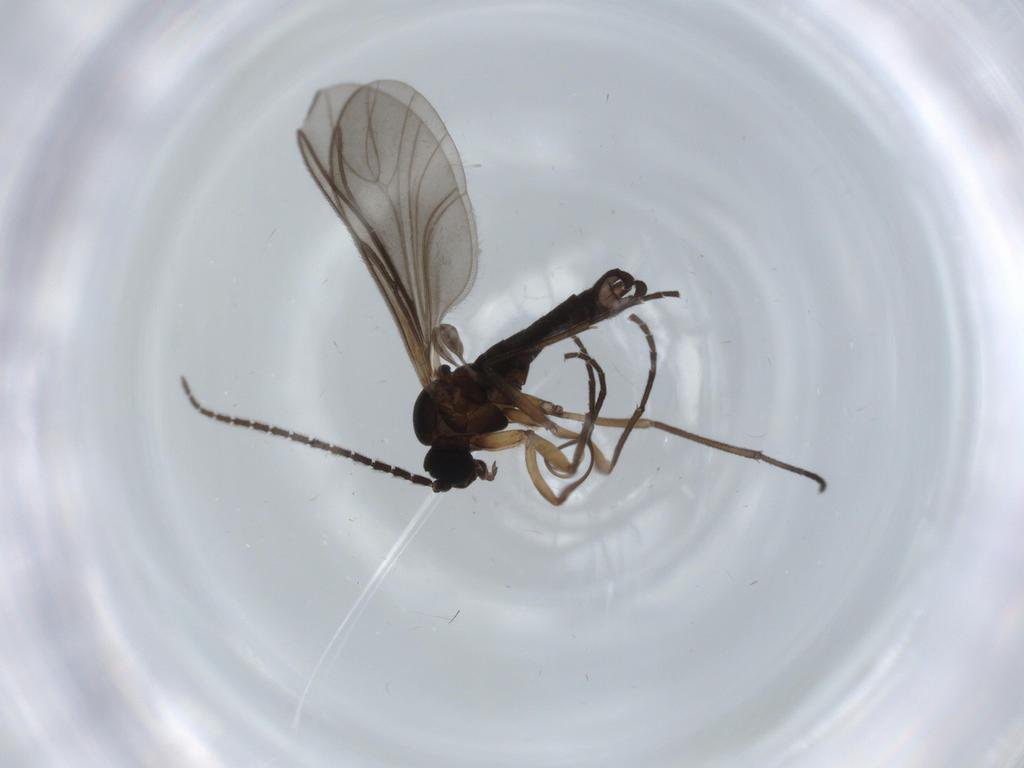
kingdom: Animalia
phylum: Arthropoda
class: Insecta
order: Diptera
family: Sciaridae
